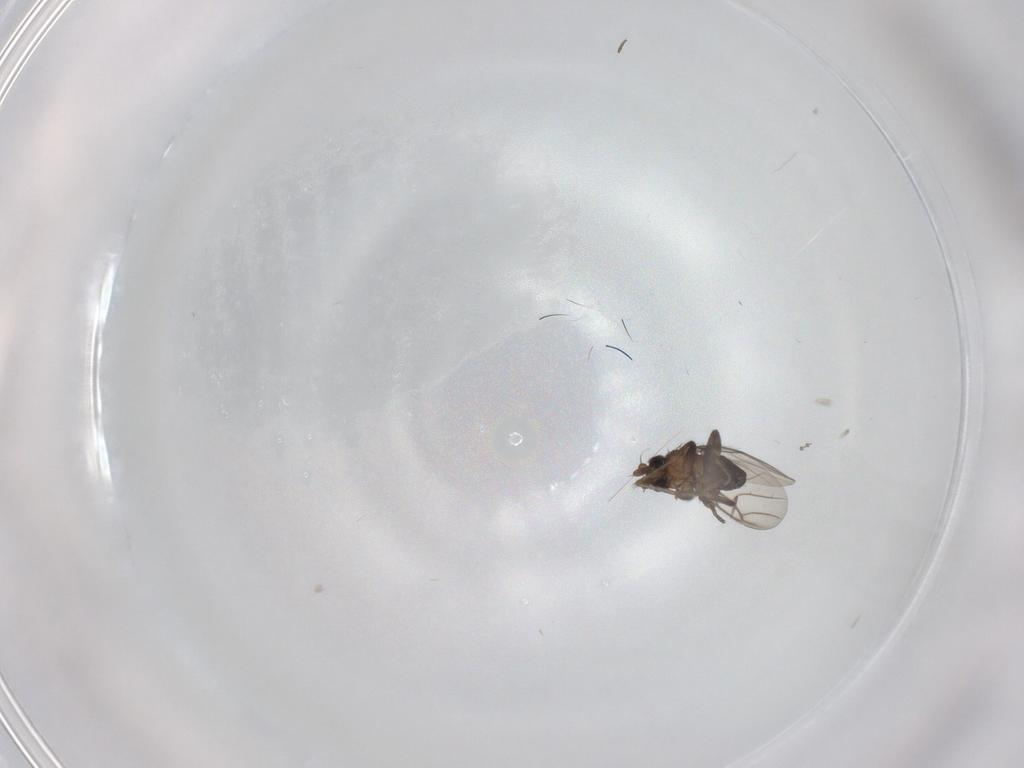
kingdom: Animalia
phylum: Arthropoda
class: Insecta
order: Diptera
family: Phoridae
